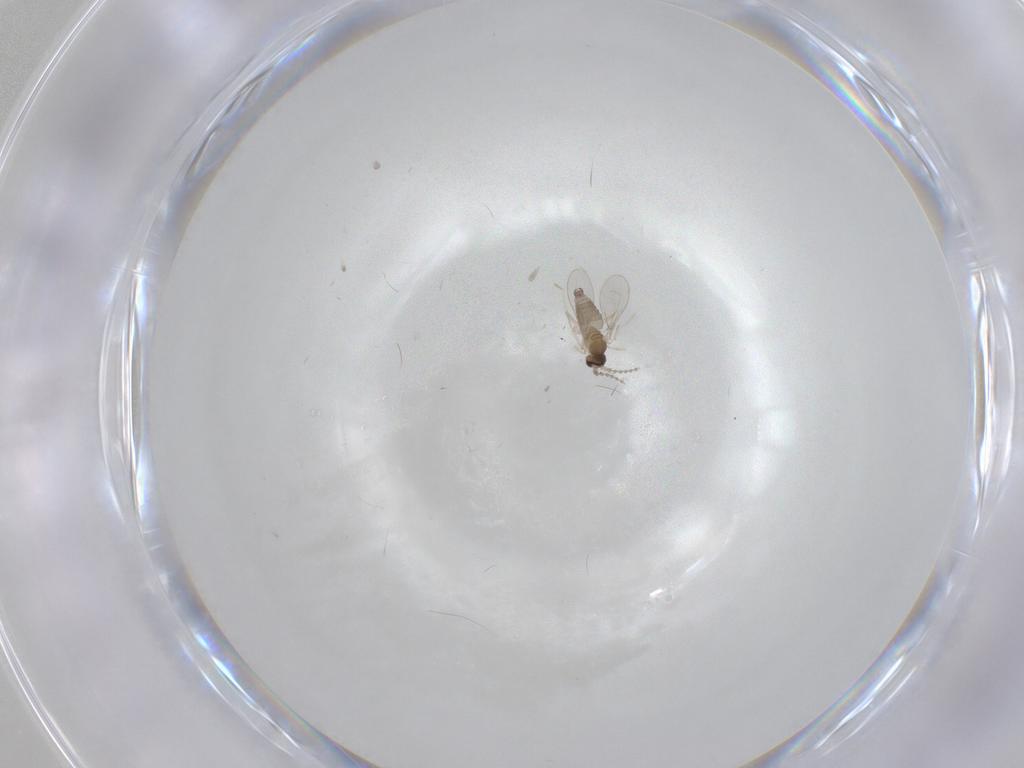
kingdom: Animalia
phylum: Arthropoda
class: Insecta
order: Diptera
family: Cecidomyiidae
